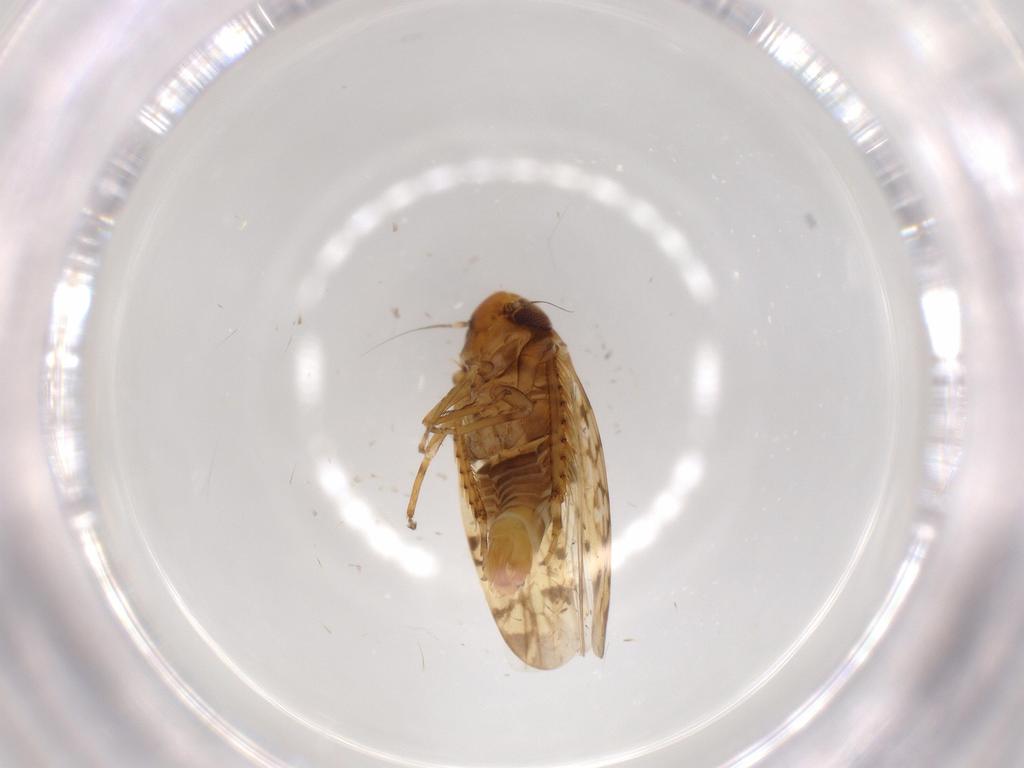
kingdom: Animalia
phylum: Arthropoda
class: Insecta
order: Hemiptera
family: Cicadellidae
